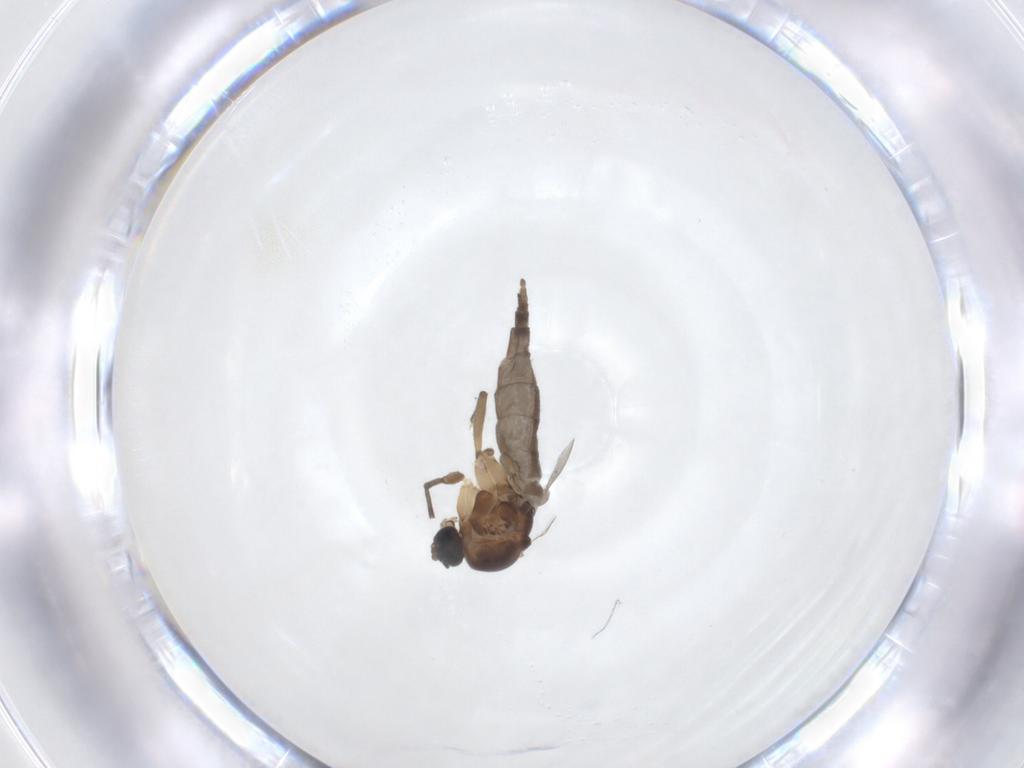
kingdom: Animalia
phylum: Arthropoda
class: Insecta
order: Diptera
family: Sciaridae
